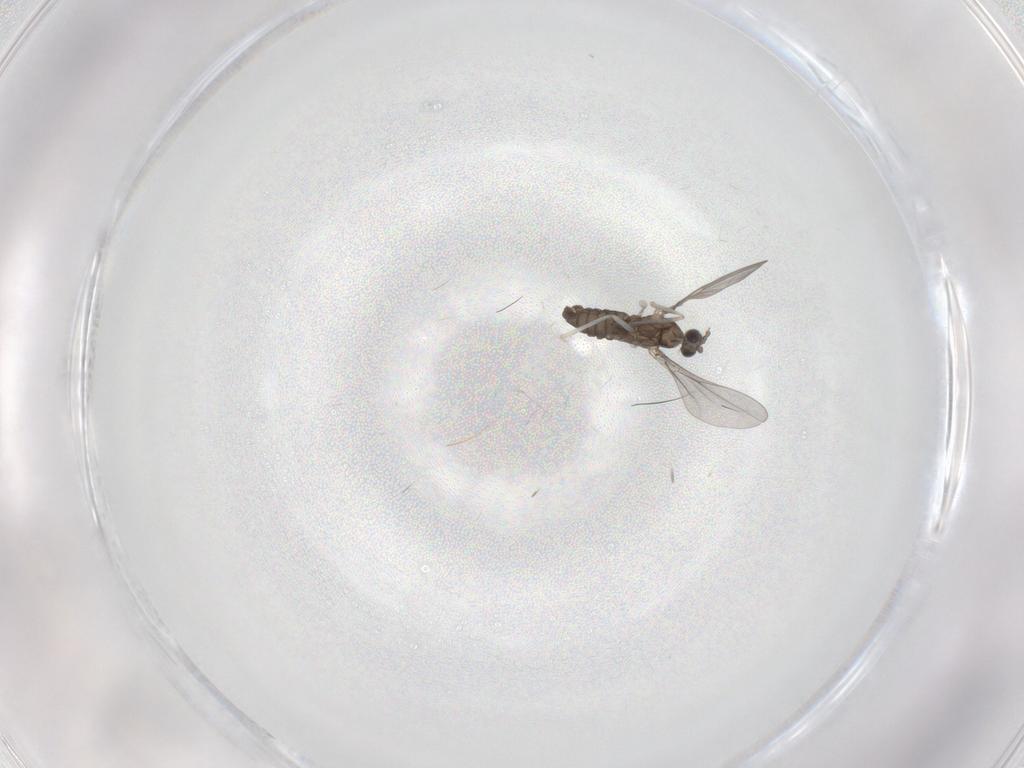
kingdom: Animalia
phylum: Arthropoda
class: Insecta
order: Diptera
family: Cecidomyiidae
